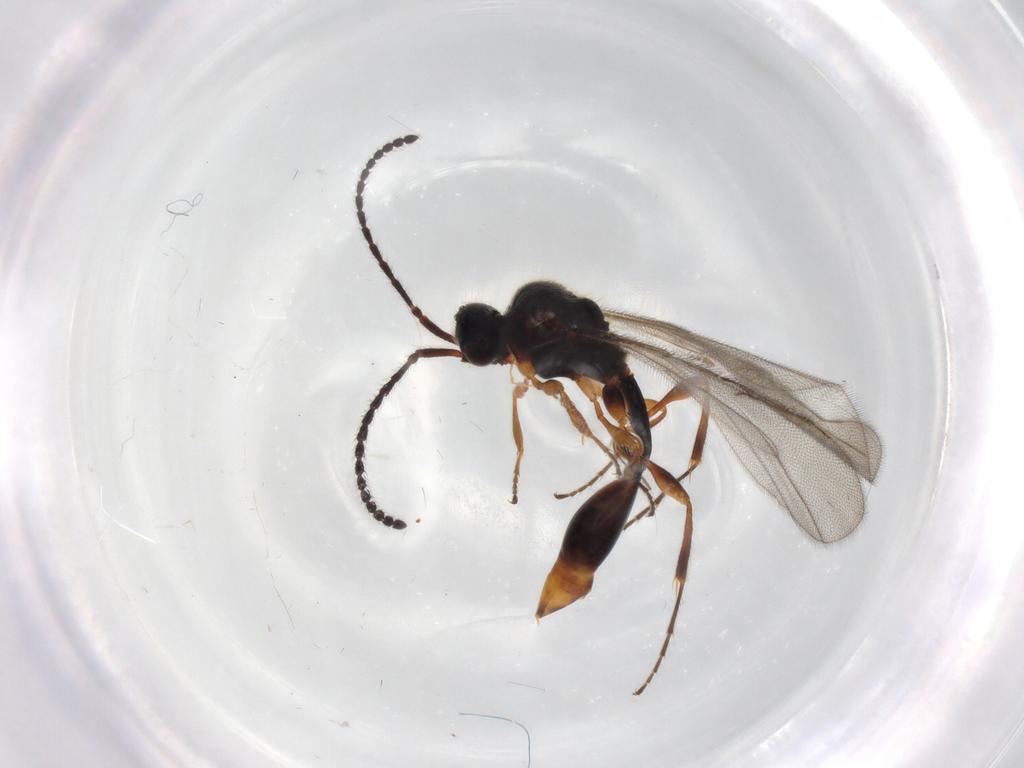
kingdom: Animalia
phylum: Arthropoda
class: Insecta
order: Hymenoptera
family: Diapriidae
